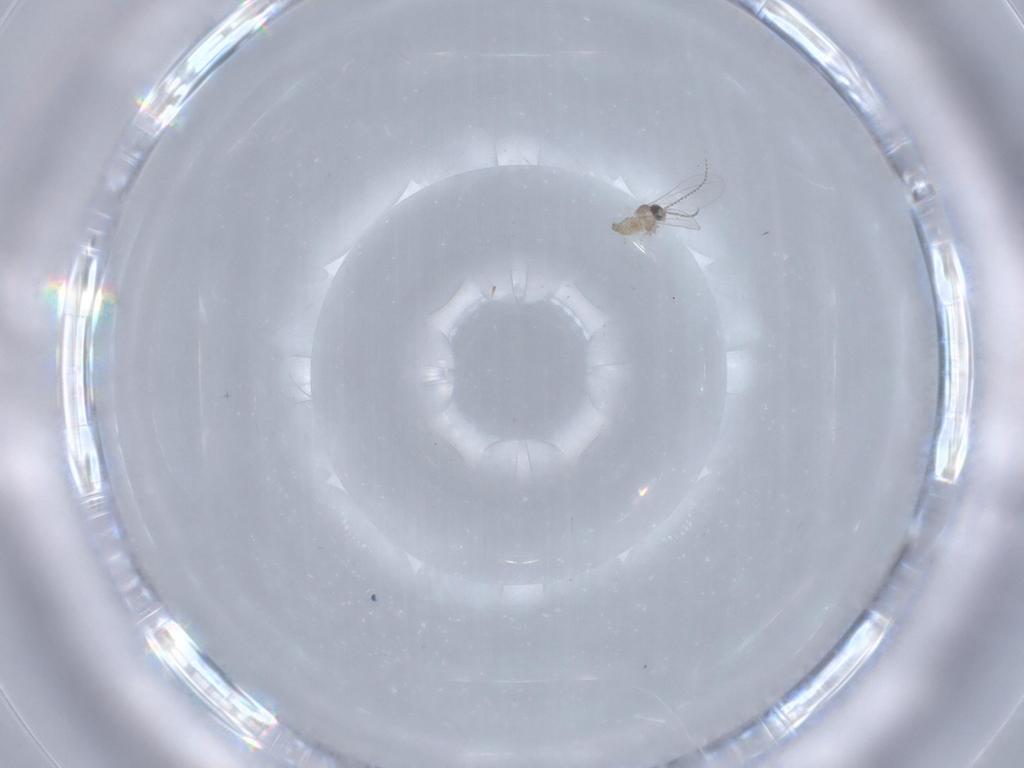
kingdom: Animalia
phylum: Arthropoda
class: Insecta
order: Diptera
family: Cecidomyiidae
